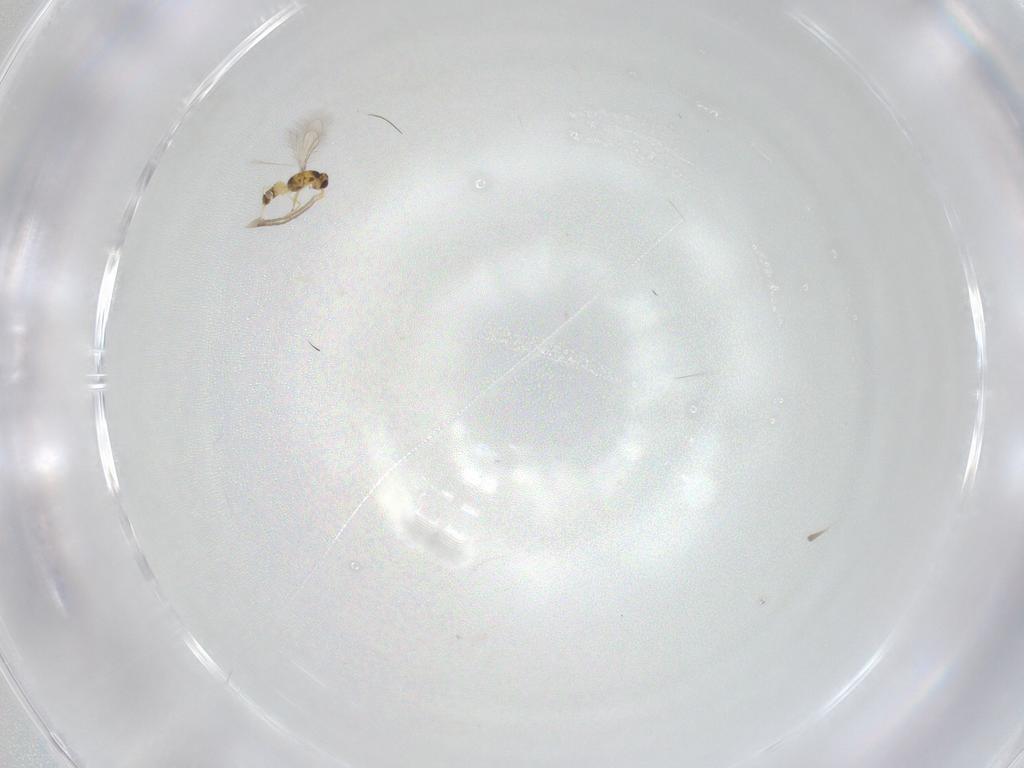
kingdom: Animalia
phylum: Arthropoda
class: Insecta
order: Hymenoptera
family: Mymaridae
